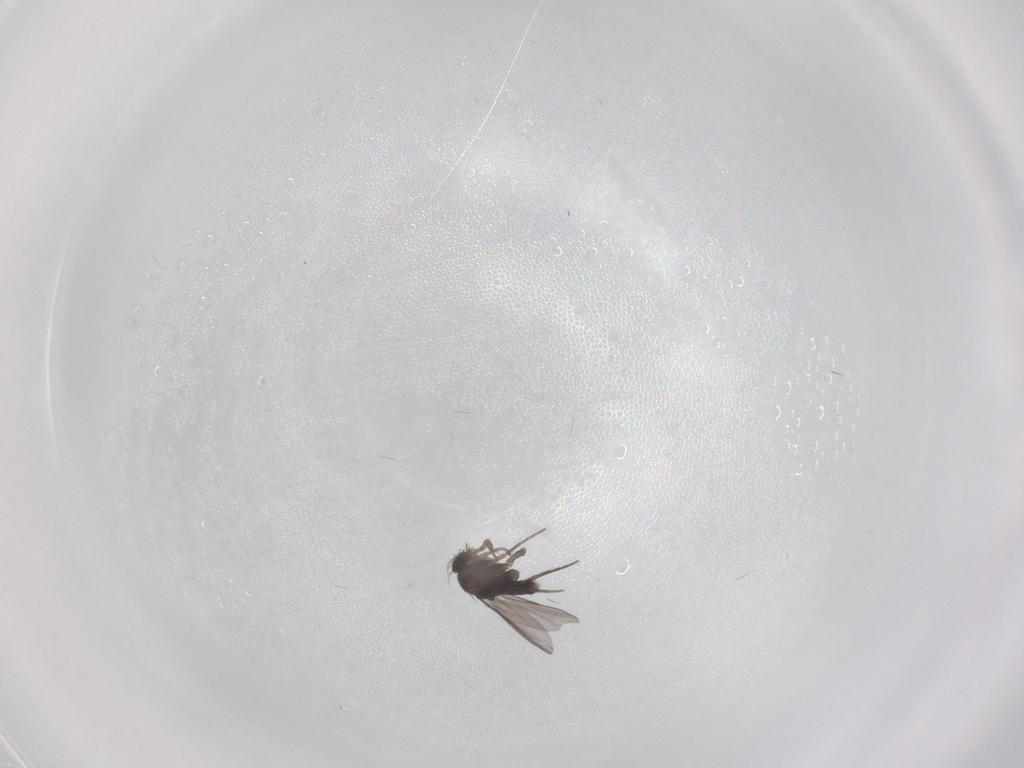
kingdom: Animalia
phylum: Arthropoda
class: Insecta
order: Diptera
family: Phoridae
